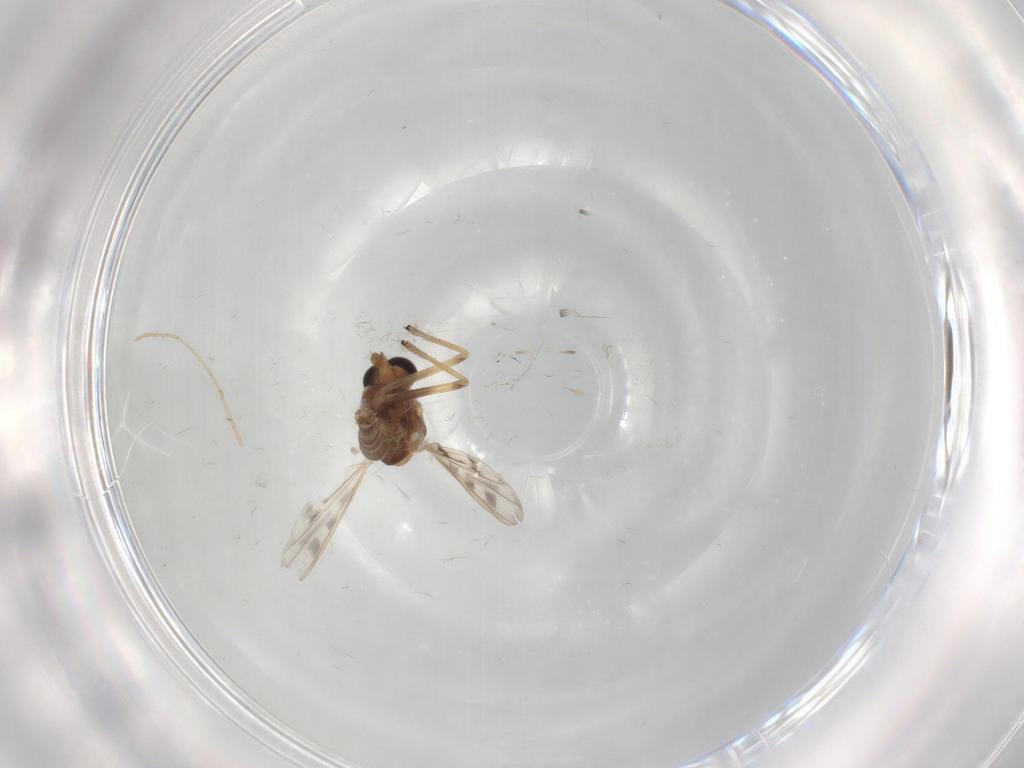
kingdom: Animalia
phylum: Arthropoda
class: Insecta
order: Diptera
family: Chironomidae
